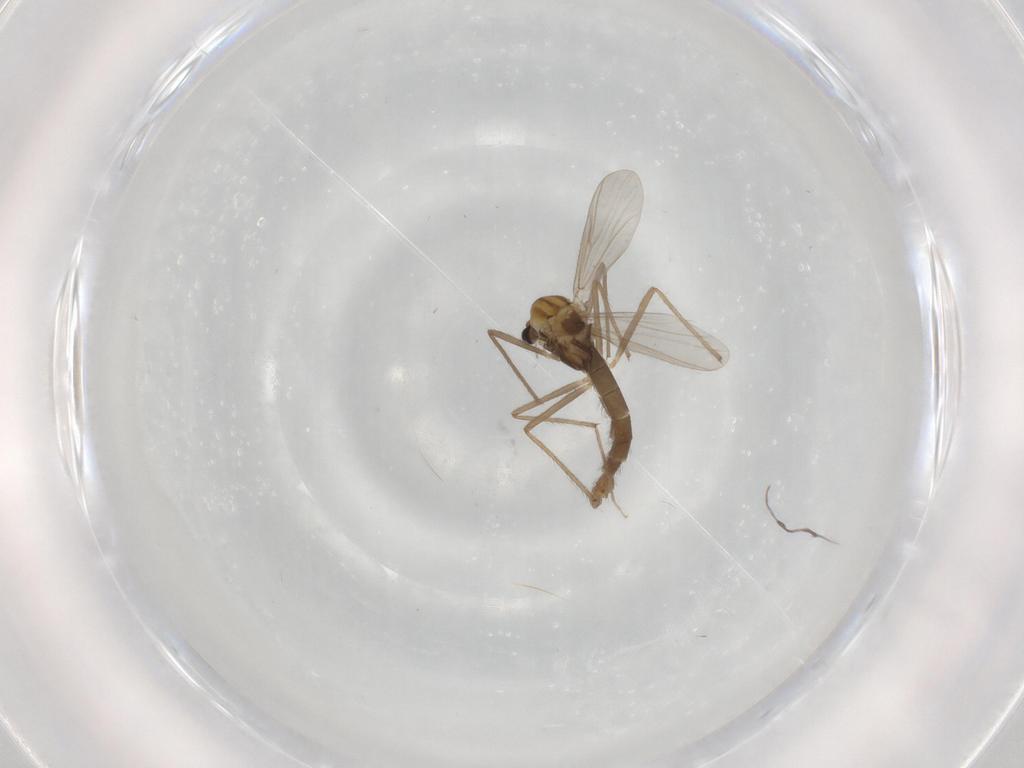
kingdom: Animalia
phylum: Arthropoda
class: Insecta
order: Diptera
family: Chironomidae
